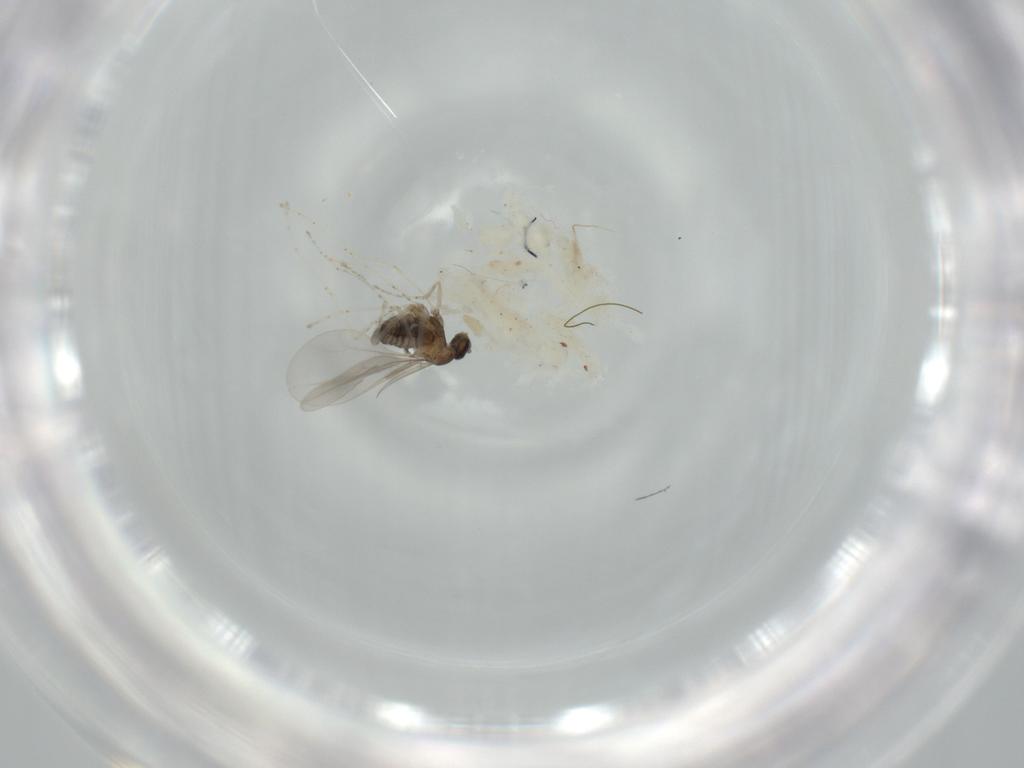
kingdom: Animalia
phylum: Arthropoda
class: Insecta
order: Diptera
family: Cecidomyiidae
